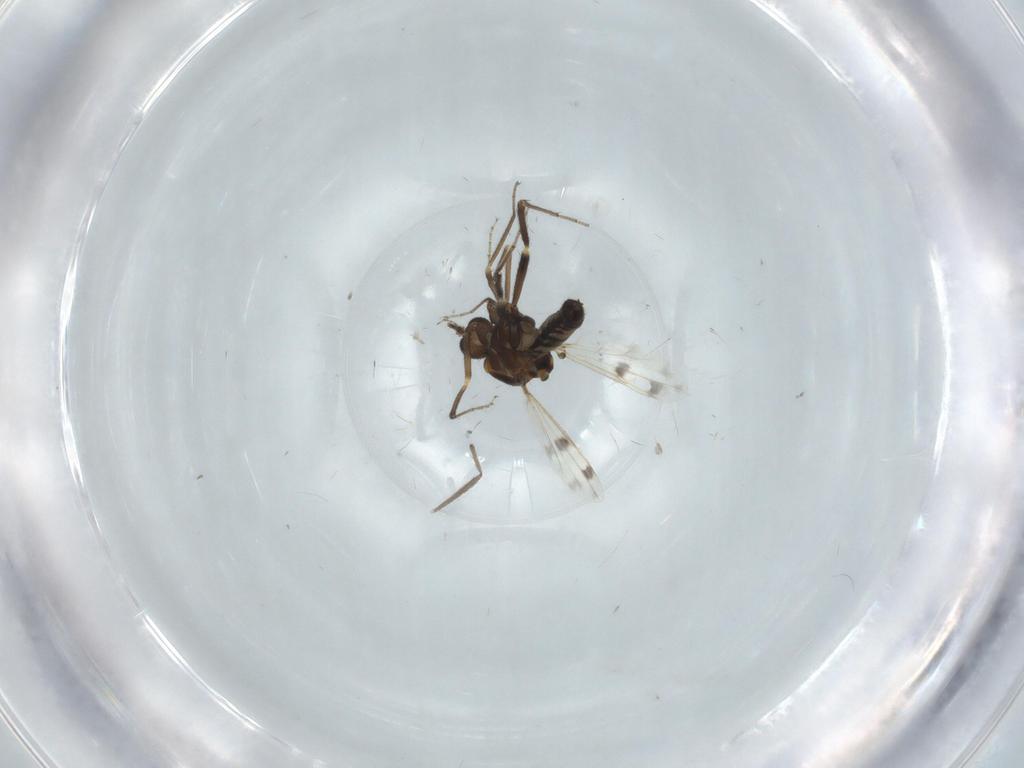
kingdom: Animalia
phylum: Arthropoda
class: Insecta
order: Diptera
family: Ceratopogonidae
